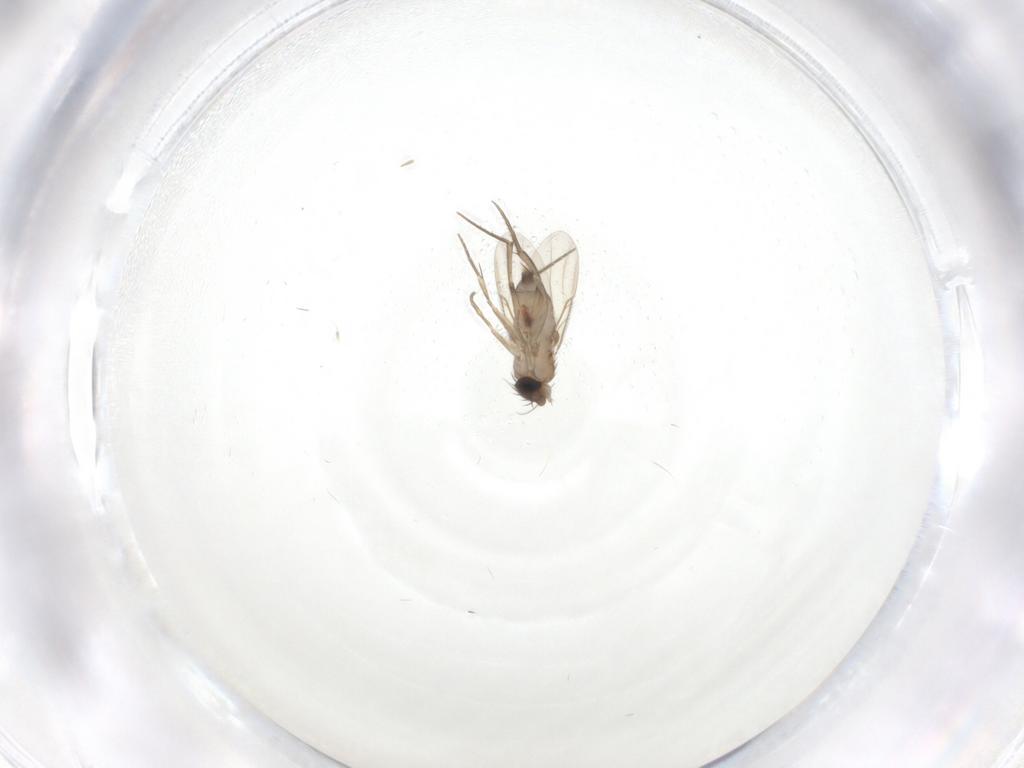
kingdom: Animalia
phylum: Arthropoda
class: Insecta
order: Diptera
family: Phoridae
